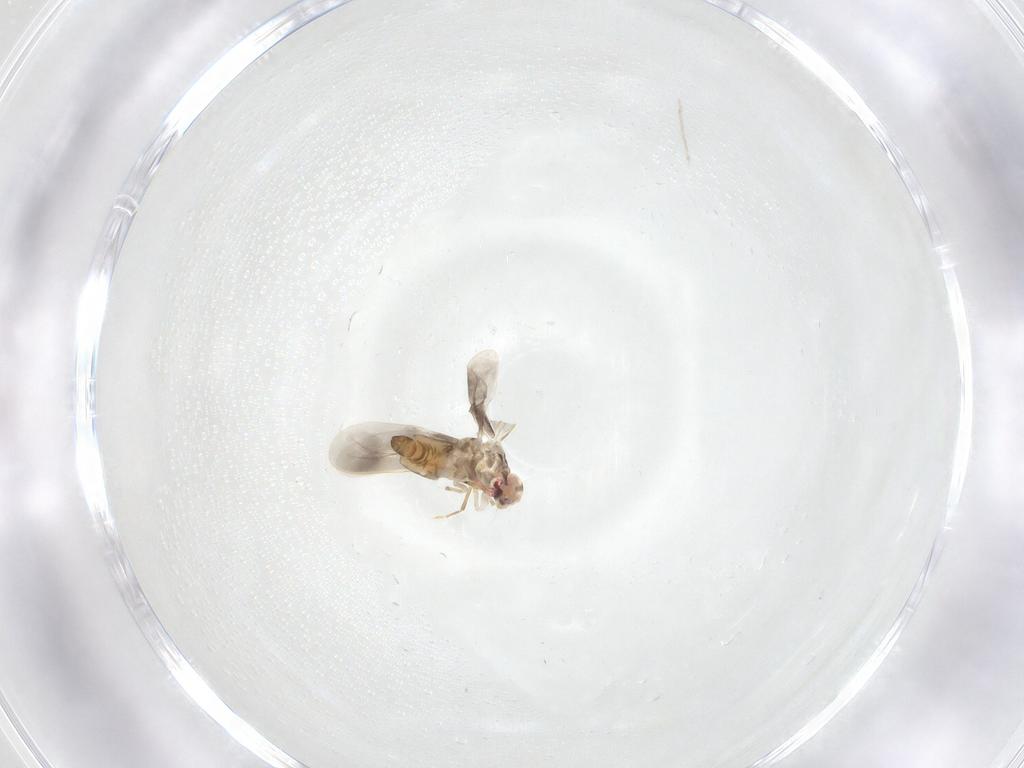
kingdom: Animalia
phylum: Arthropoda
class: Insecta
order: Hemiptera
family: Aleyrodidae
